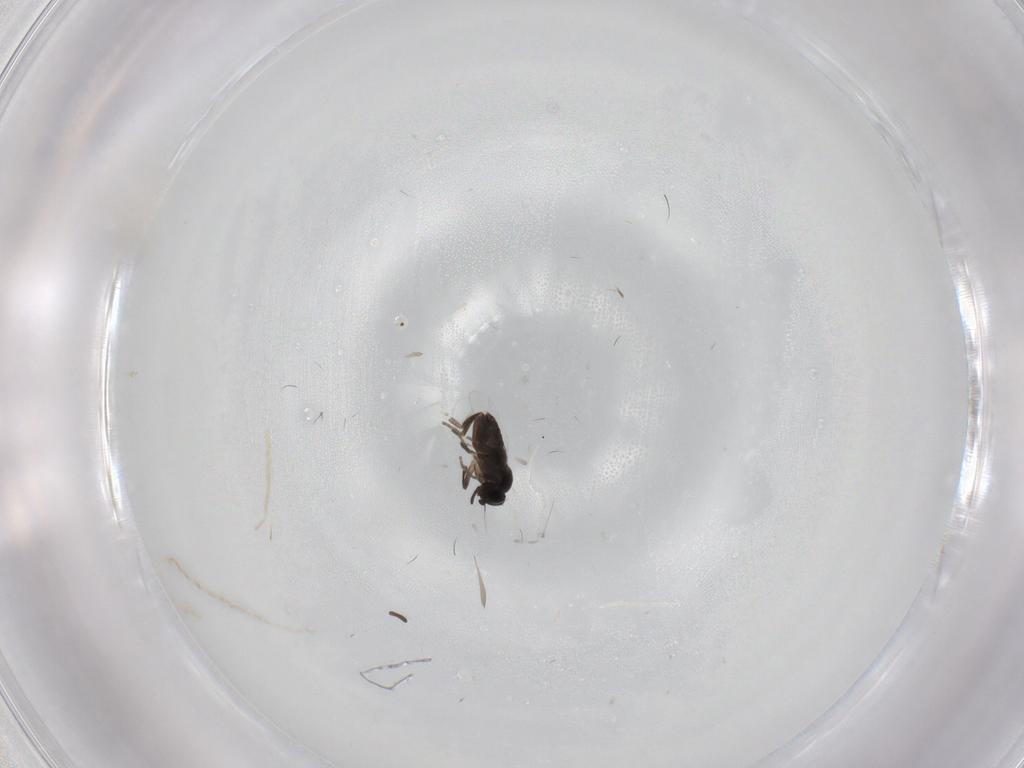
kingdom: Animalia
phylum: Arthropoda
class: Insecta
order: Diptera
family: Phoridae
